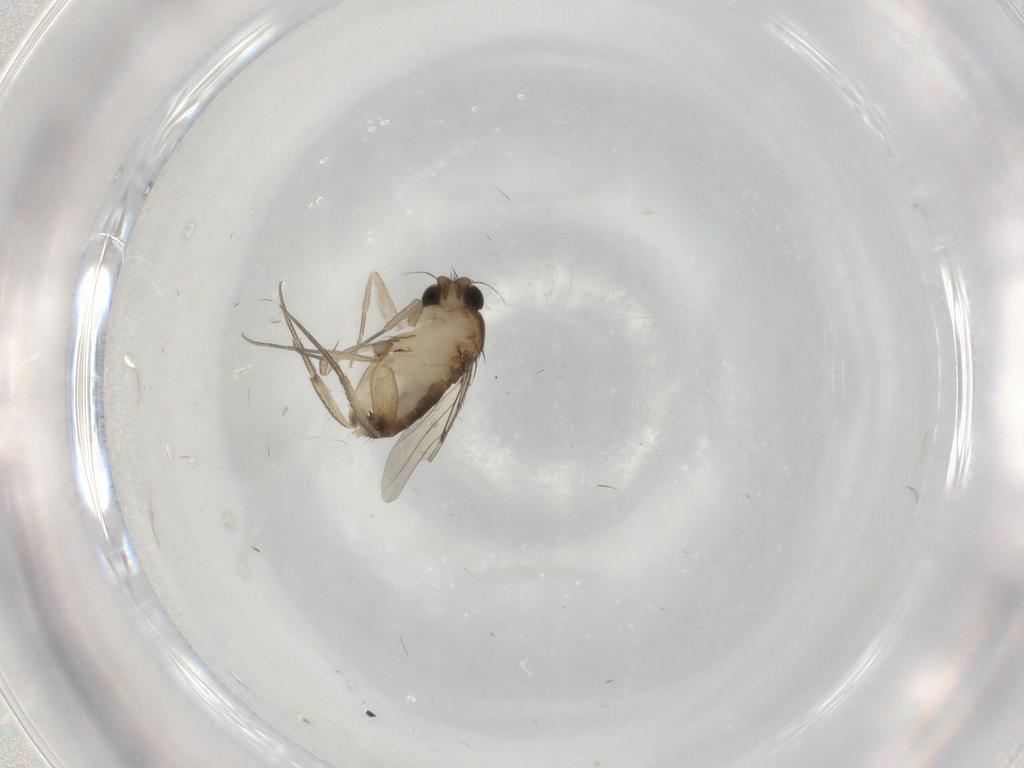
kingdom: Animalia
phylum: Arthropoda
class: Insecta
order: Diptera
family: Phoridae
